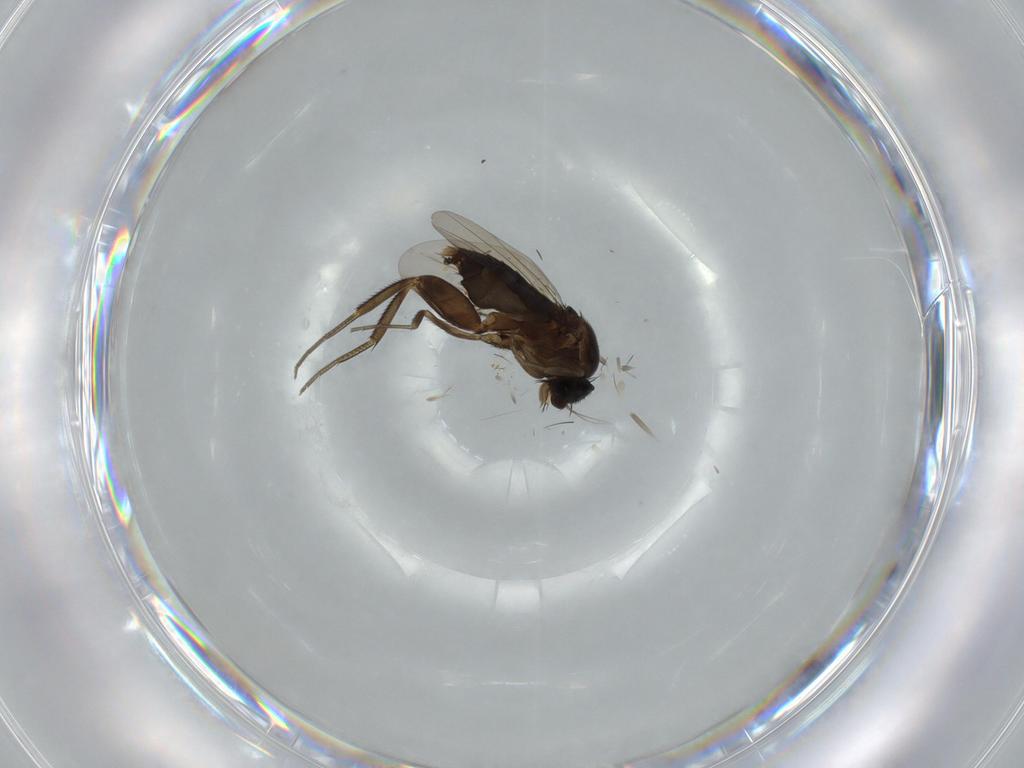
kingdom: Animalia
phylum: Arthropoda
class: Insecta
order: Diptera
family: Phoridae
